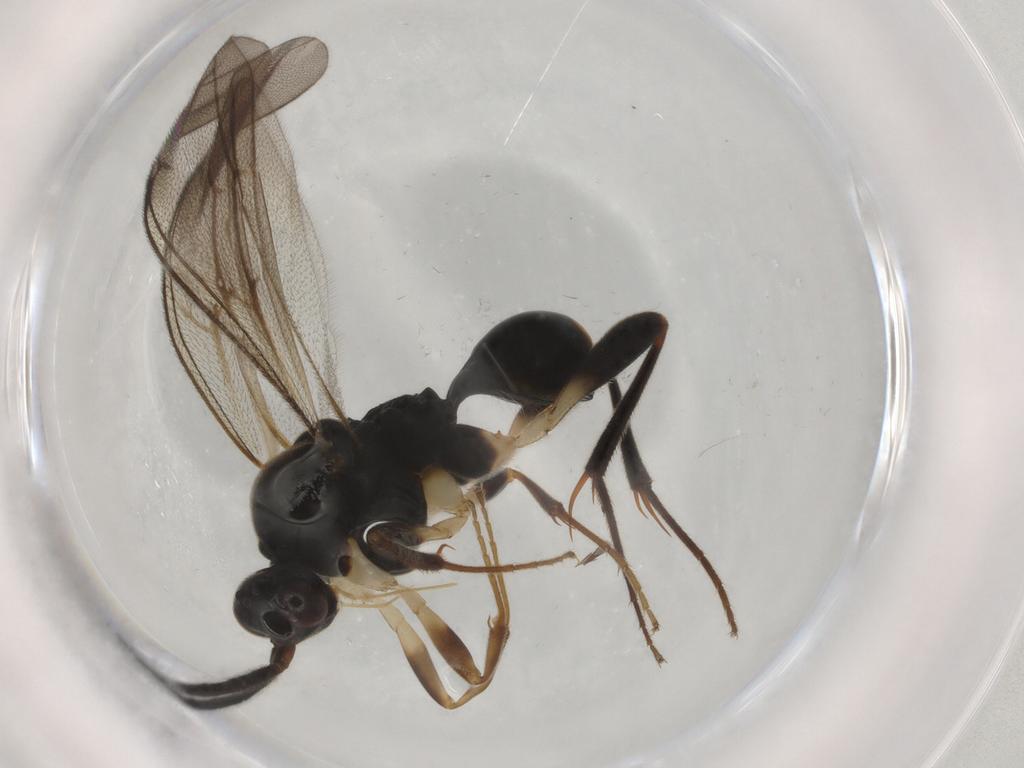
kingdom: Animalia
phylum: Arthropoda
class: Insecta
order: Hymenoptera
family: Proctotrupidae
